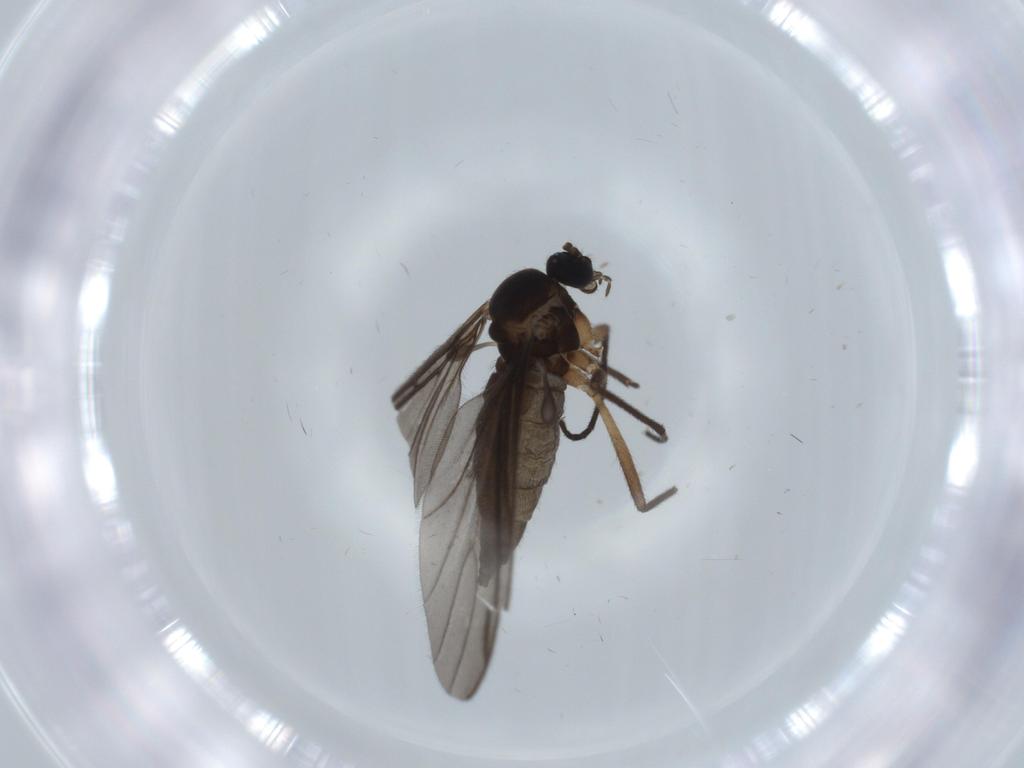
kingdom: Animalia
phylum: Arthropoda
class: Insecta
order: Diptera
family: Sciaridae
